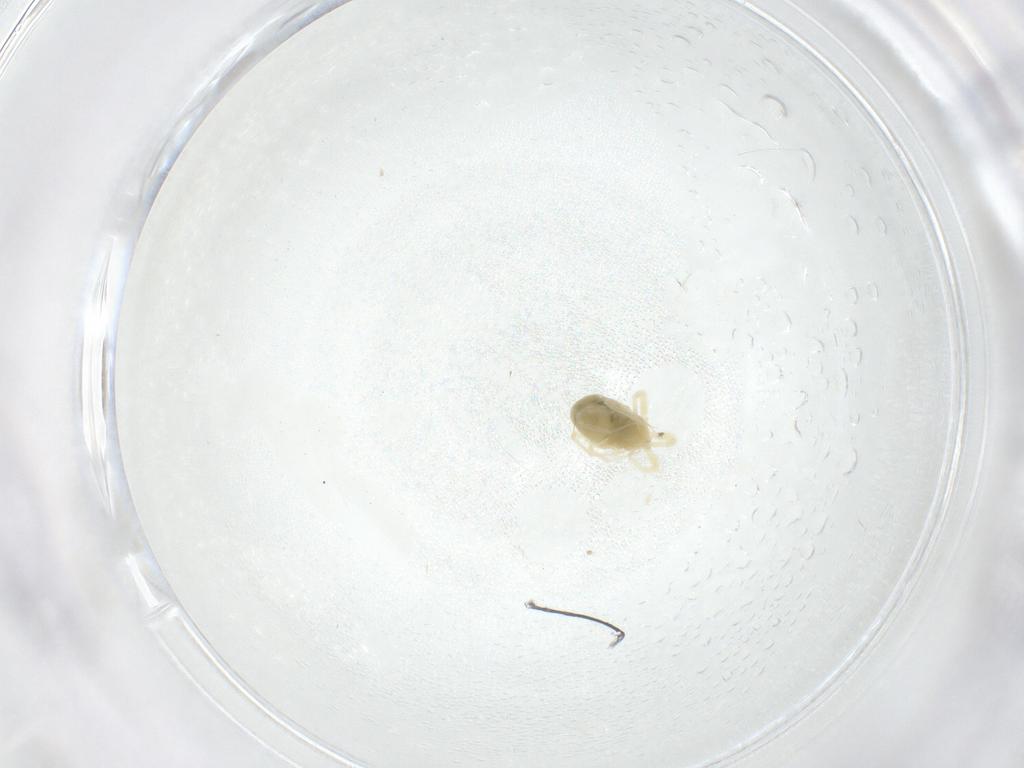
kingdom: Animalia
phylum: Arthropoda
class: Arachnida
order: Trombidiformes
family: Anystidae
